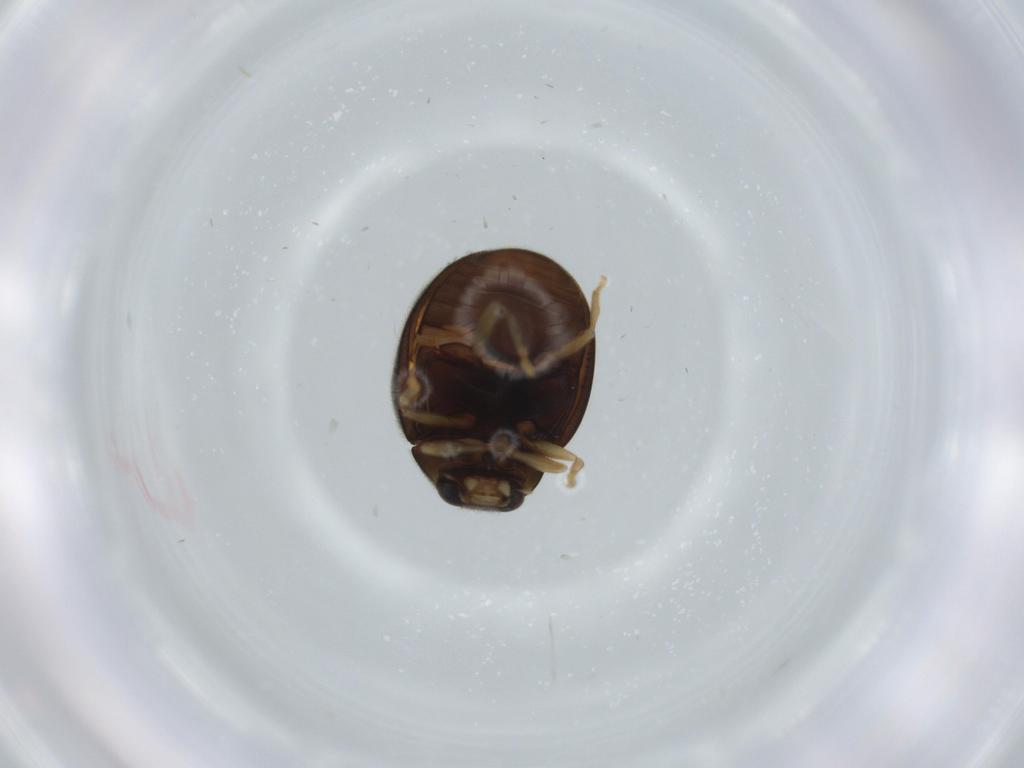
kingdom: Animalia
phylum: Arthropoda
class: Insecta
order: Coleoptera
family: Coccinellidae
